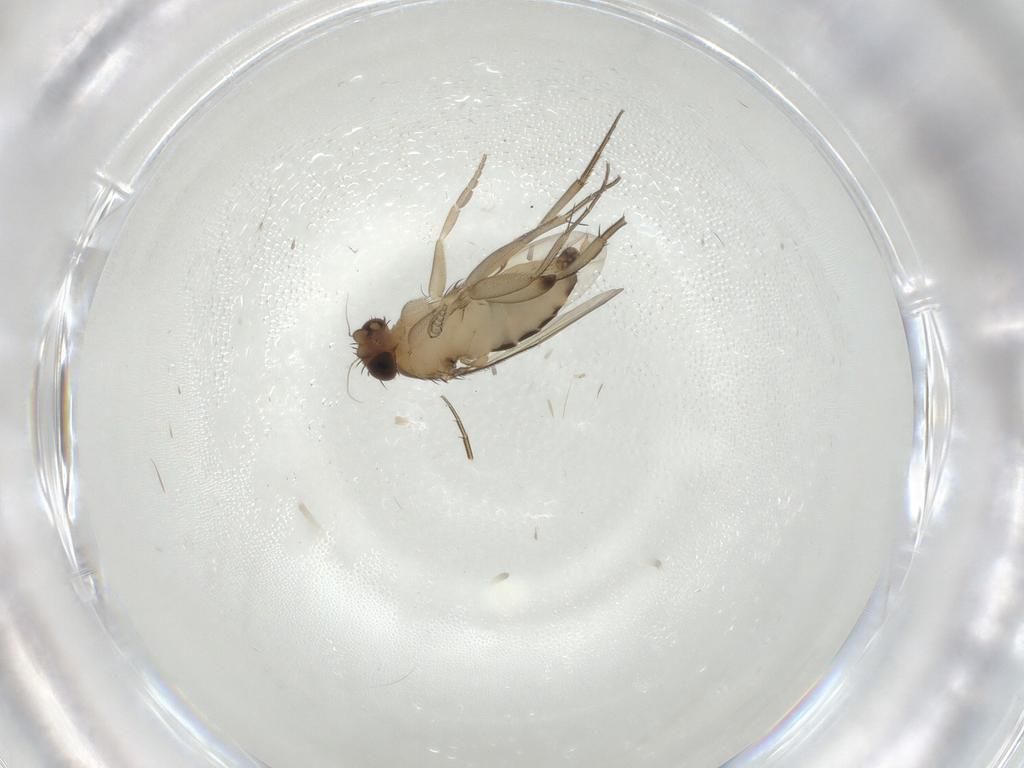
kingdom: Animalia
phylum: Arthropoda
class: Insecta
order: Diptera
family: Phoridae
